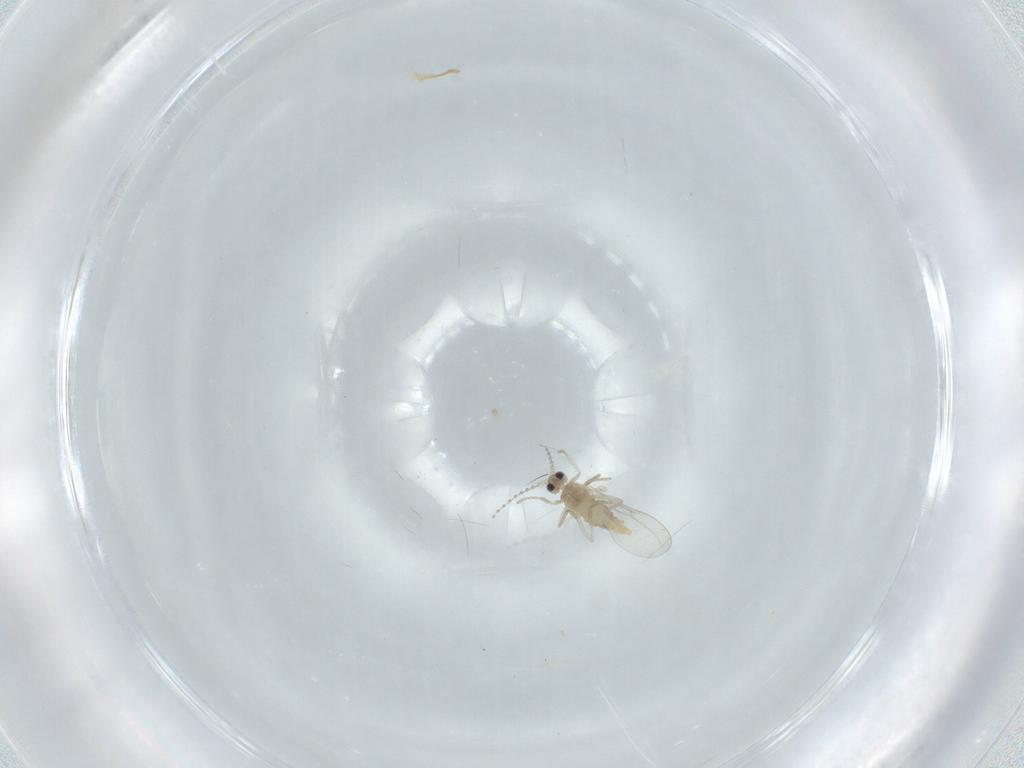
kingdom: Animalia
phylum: Arthropoda
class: Insecta
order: Diptera
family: Cecidomyiidae
